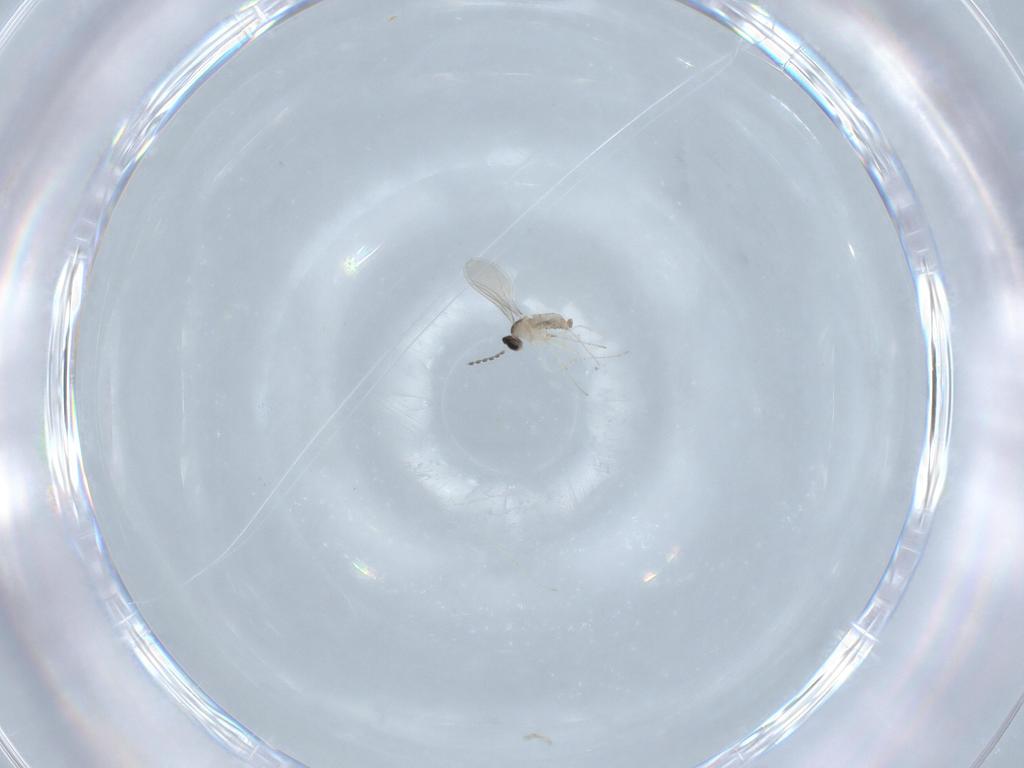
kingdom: Animalia
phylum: Arthropoda
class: Insecta
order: Diptera
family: Cecidomyiidae
